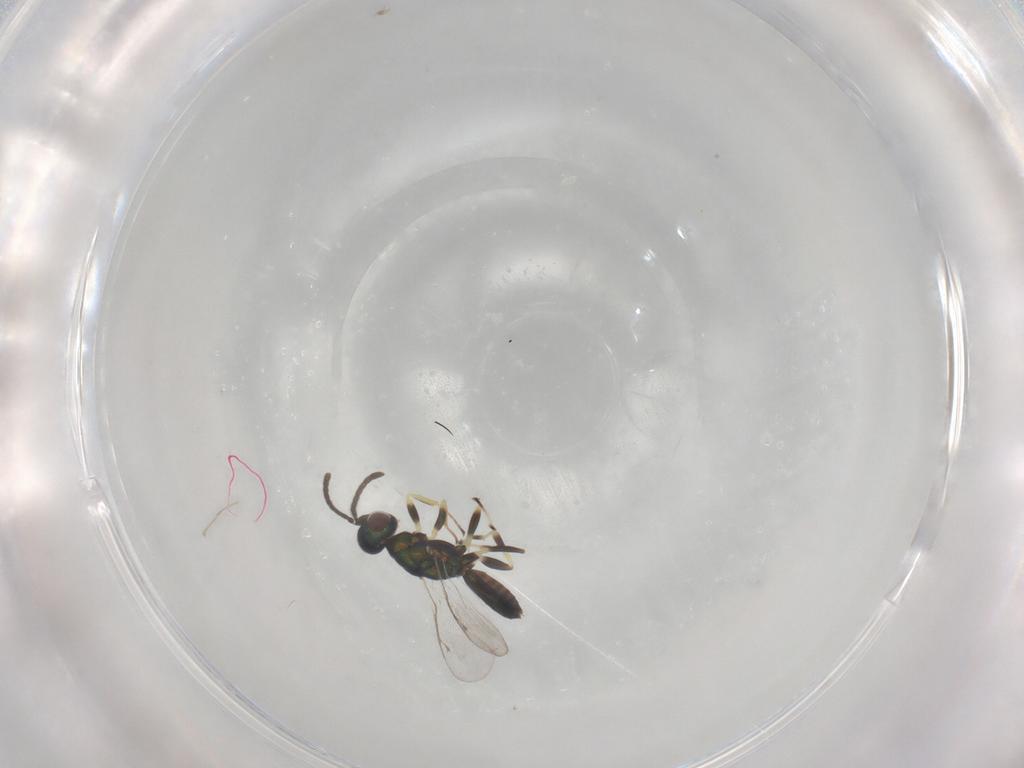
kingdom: Animalia
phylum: Arthropoda
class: Insecta
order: Hymenoptera
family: Eupelmidae
